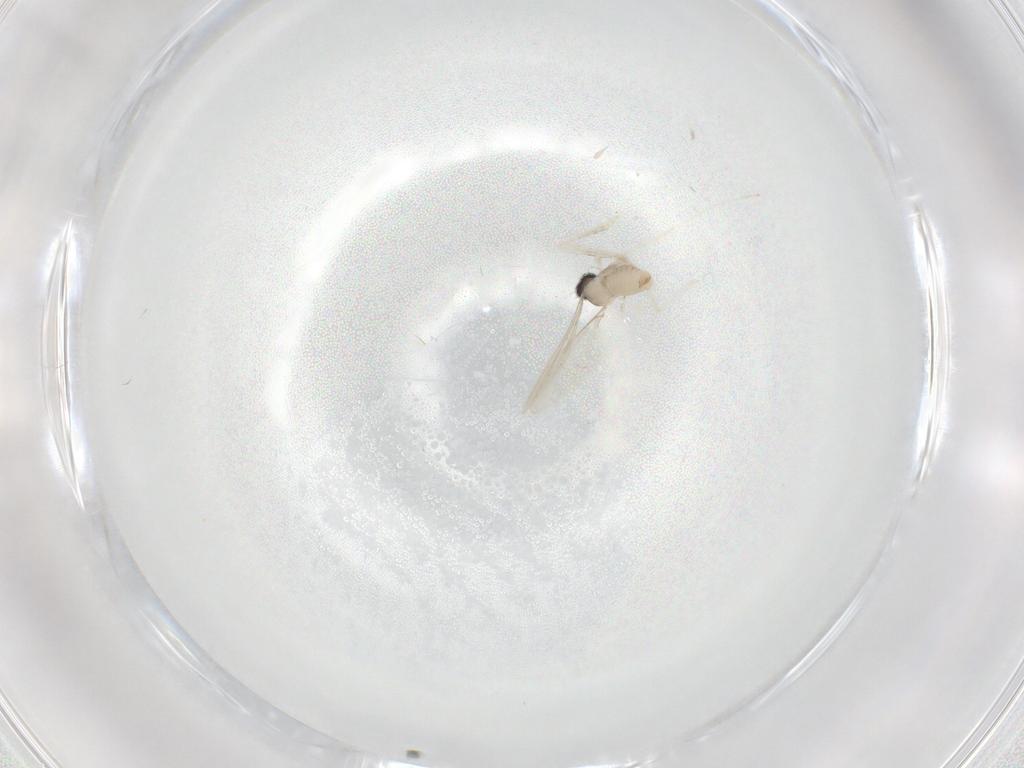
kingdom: Animalia
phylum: Arthropoda
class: Insecta
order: Diptera
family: Cecidomyiidae
